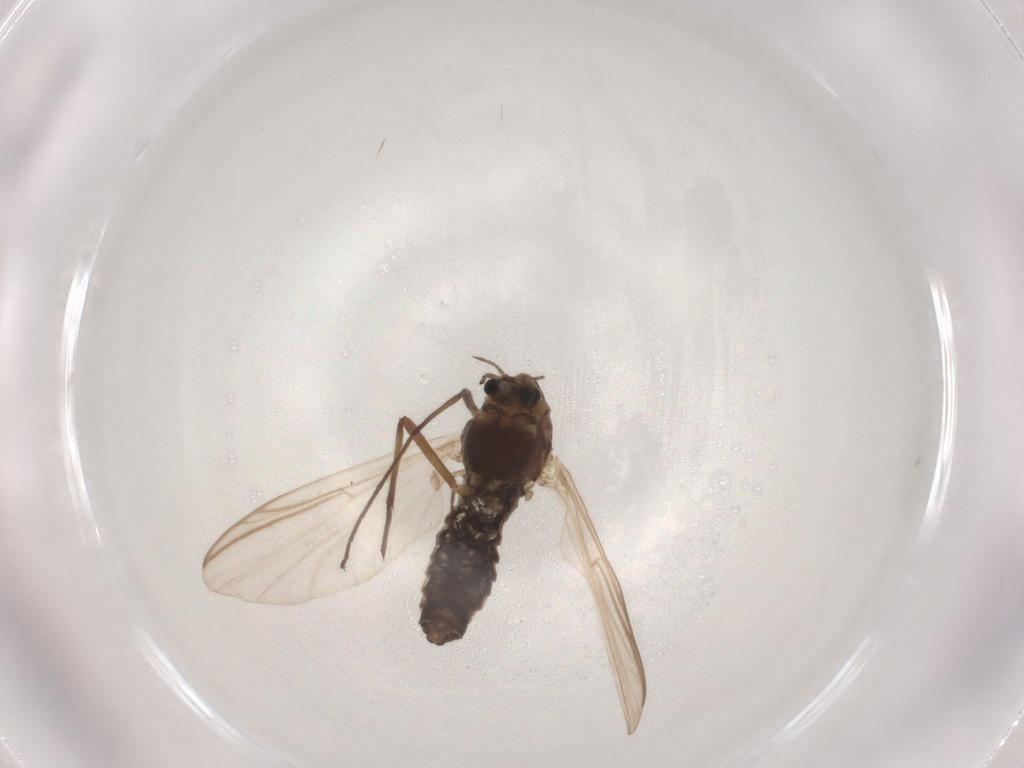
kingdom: Animalia
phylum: Arthropoda
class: Insecta
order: Diptera
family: Chironomidae
